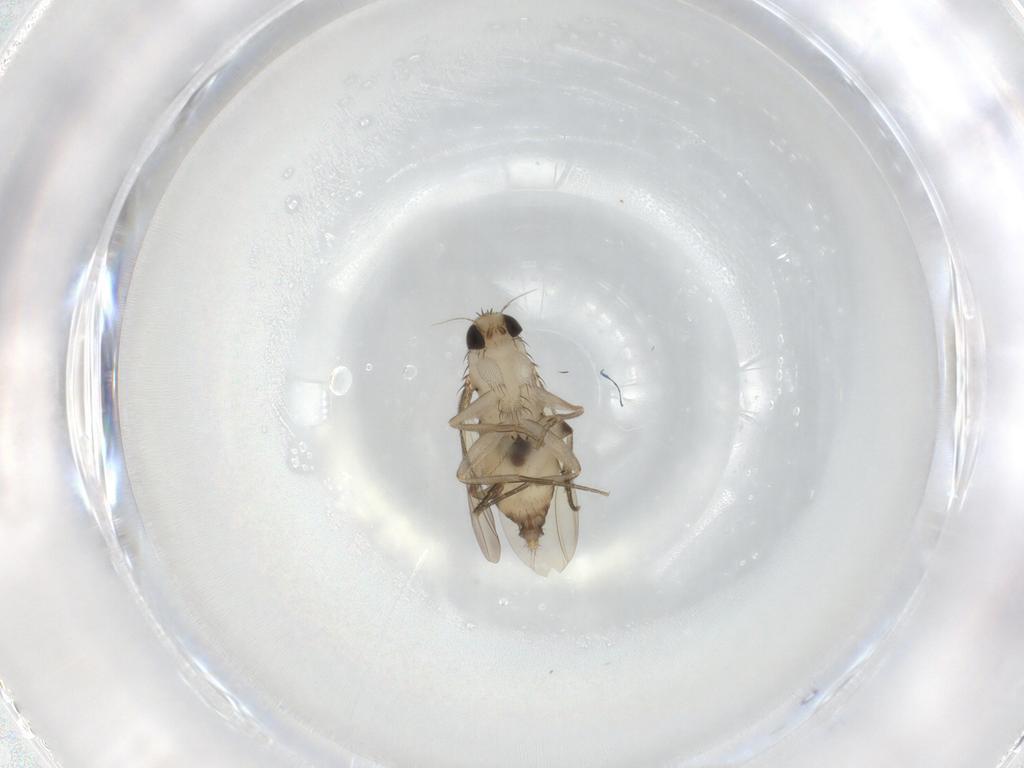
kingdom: Animalia
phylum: Arthropoda
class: Insecta
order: Diptera
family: Phoridae
